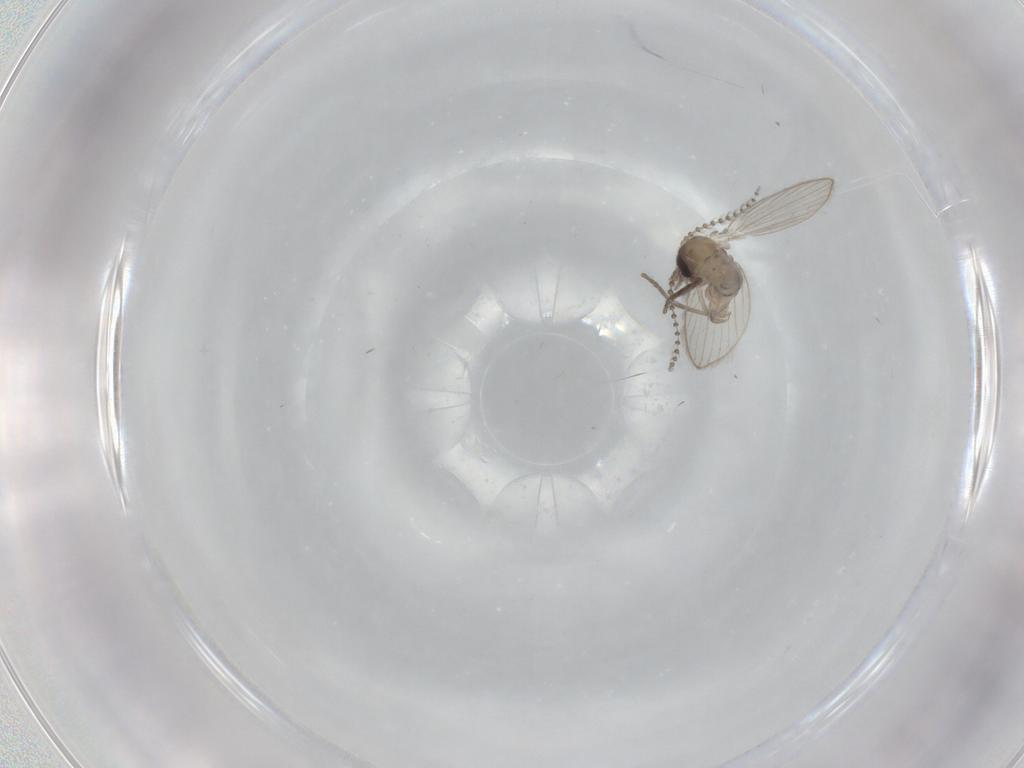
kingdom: Animalia
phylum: Arthropoda
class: Insecta
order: Diptera
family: Psychodidae
